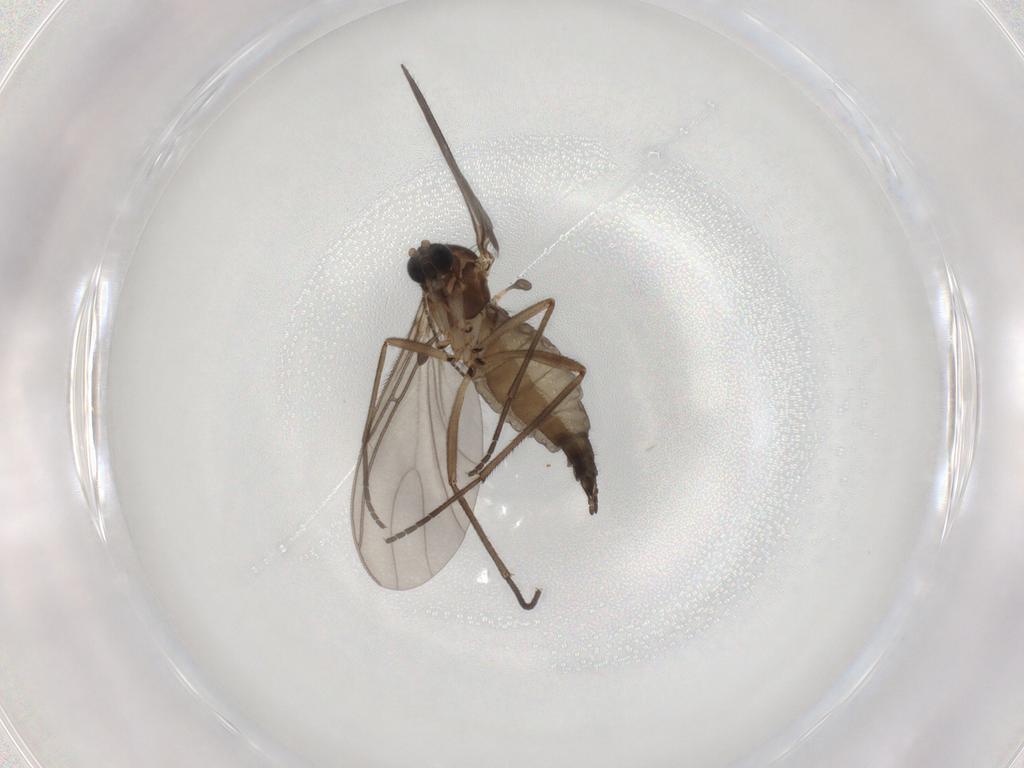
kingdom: Animalia
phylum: Arthropoda
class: Insecta
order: Diptera
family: Sciaridae
